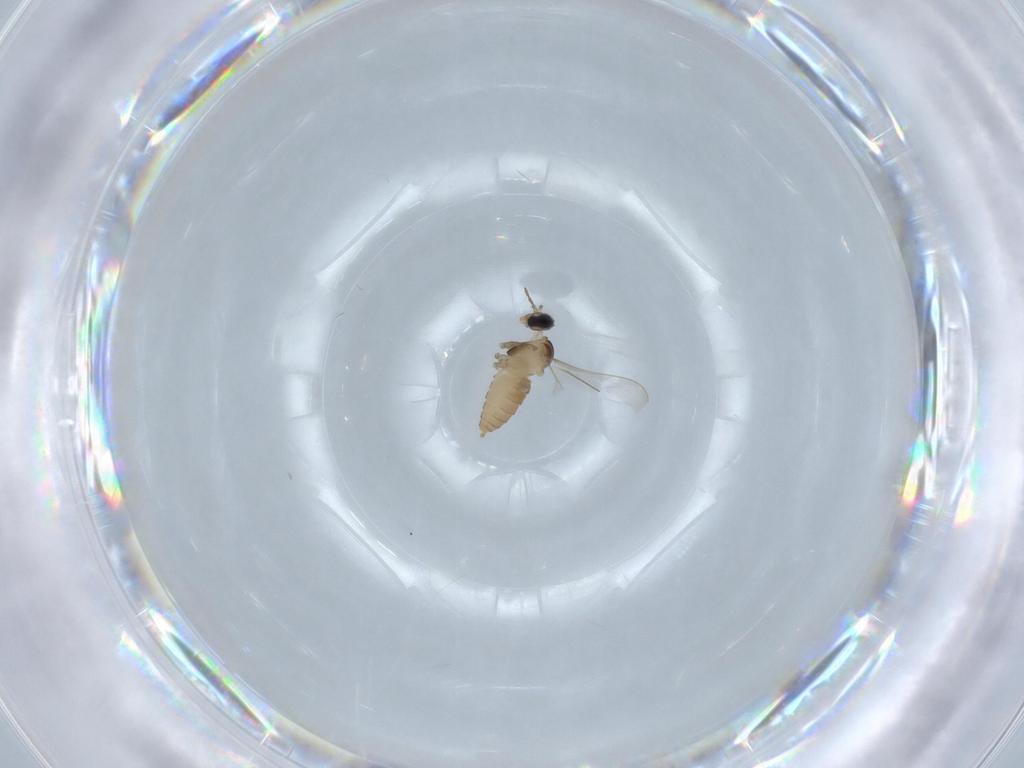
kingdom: Animalia
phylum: Arthropoda
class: Insecta
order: Diptera
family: Cecidomyiidae
